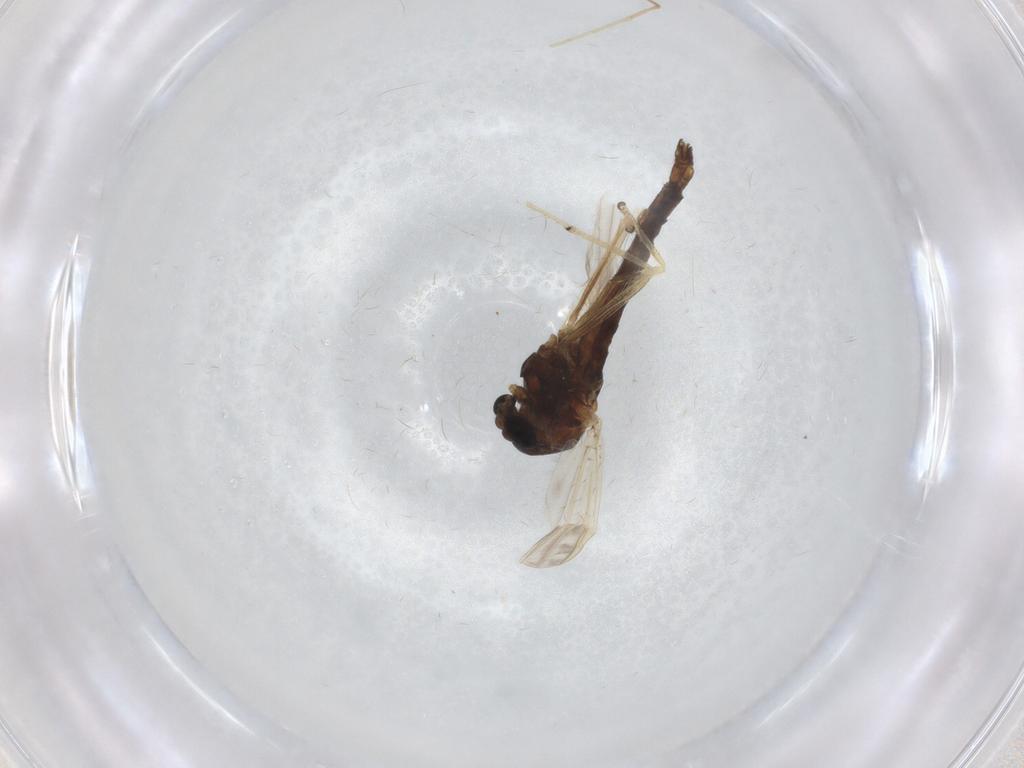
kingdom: Animalia
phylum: Arthropoda
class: Insecta
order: Diptera
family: Chironomidae
